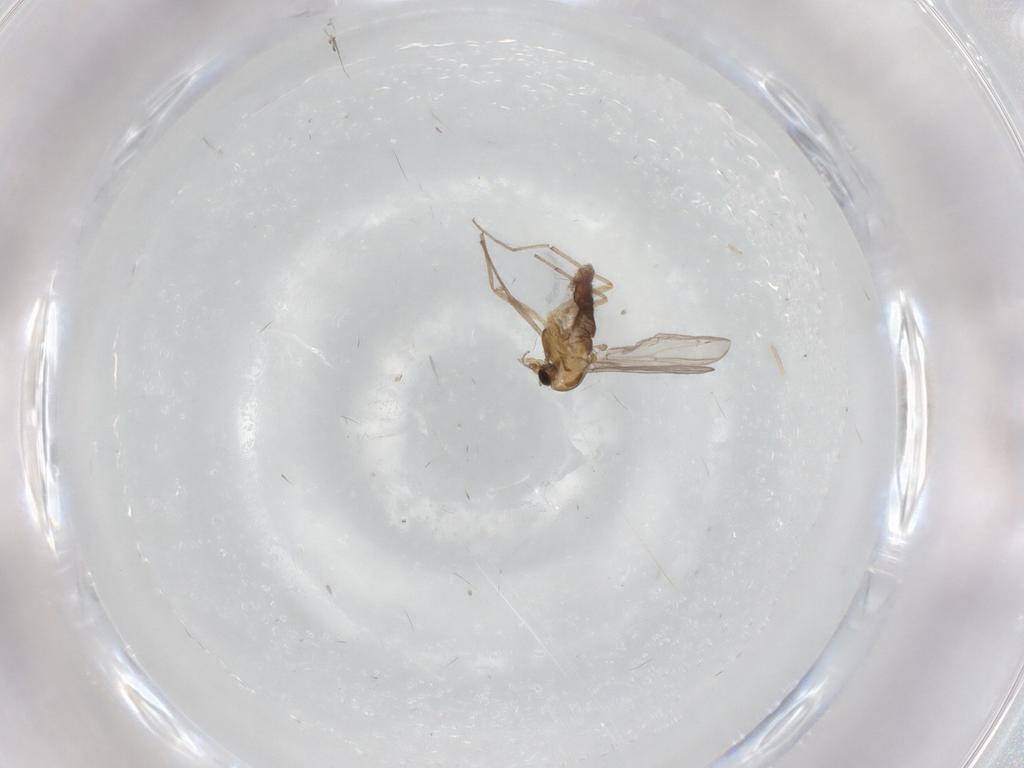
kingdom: Animalia
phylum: Arthropoda
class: Insecta
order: Diptera
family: Chironomidae
